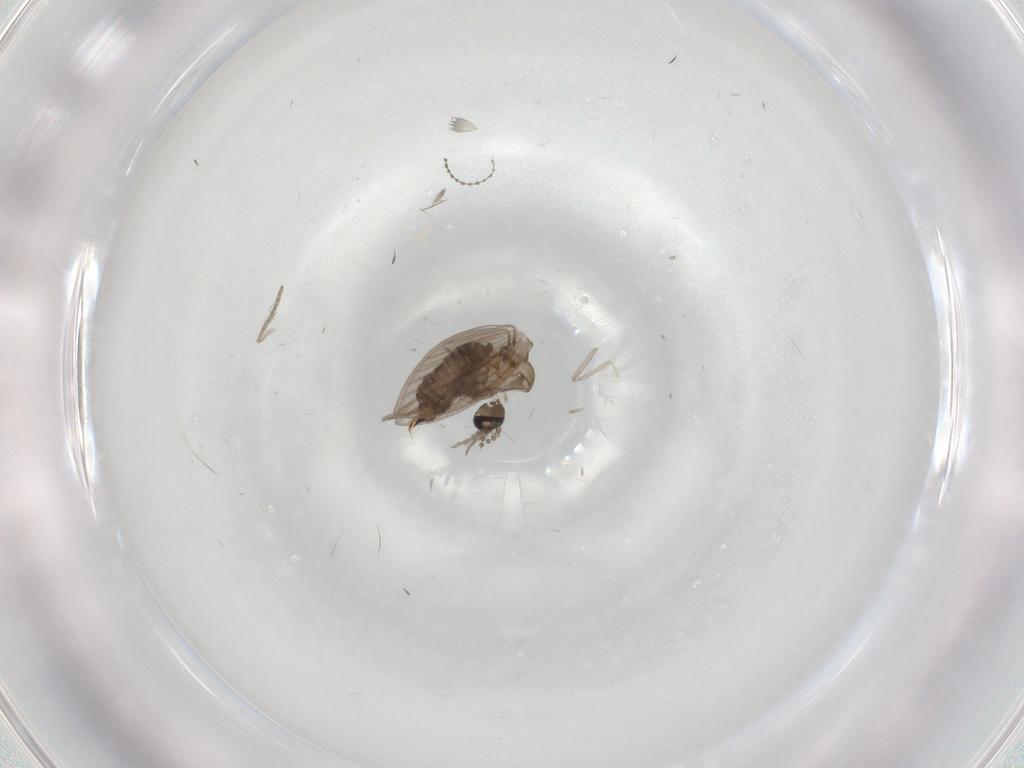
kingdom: Animalia
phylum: Arthropoda
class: Insecta
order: Diptera
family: Psychodidae
